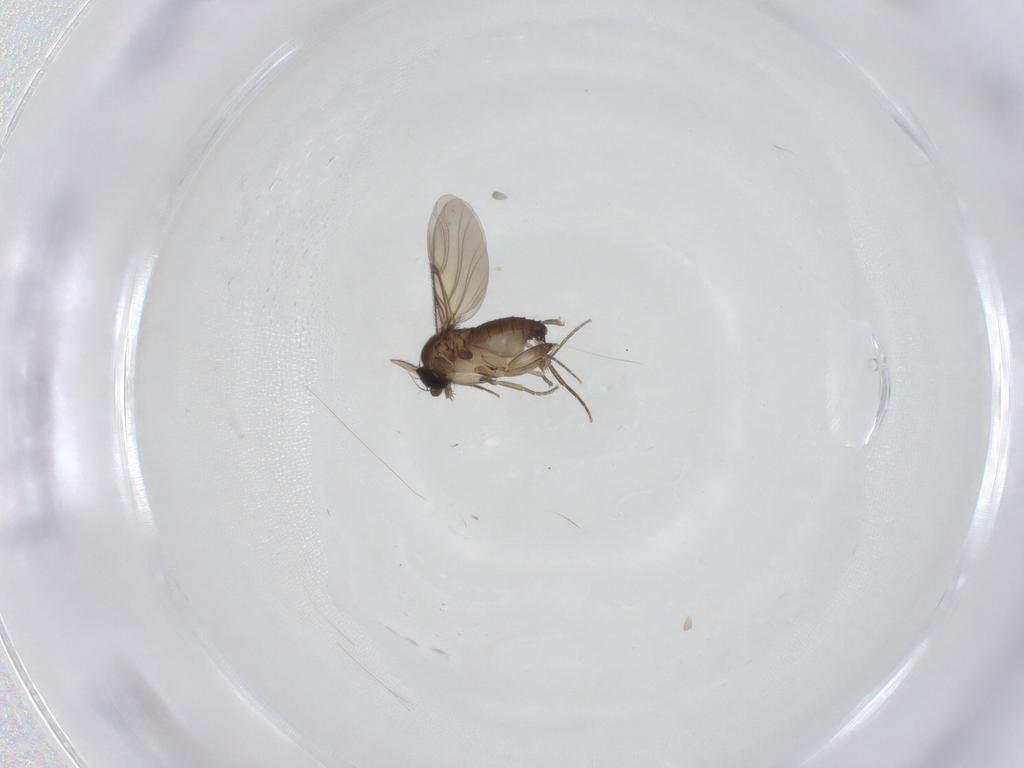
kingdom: Animalia
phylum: Arthropoda
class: Insecta
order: Diptera
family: Phoridae
